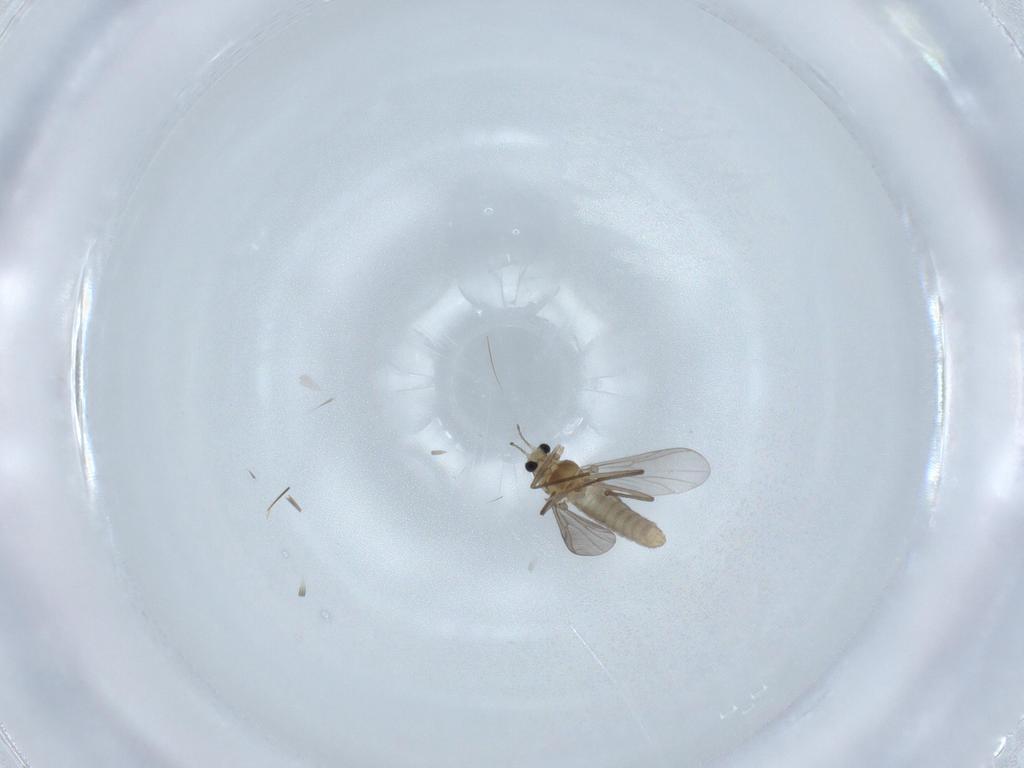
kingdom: Animalia
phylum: Arthropoda
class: Insecta
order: Diptera
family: Chironomidae
